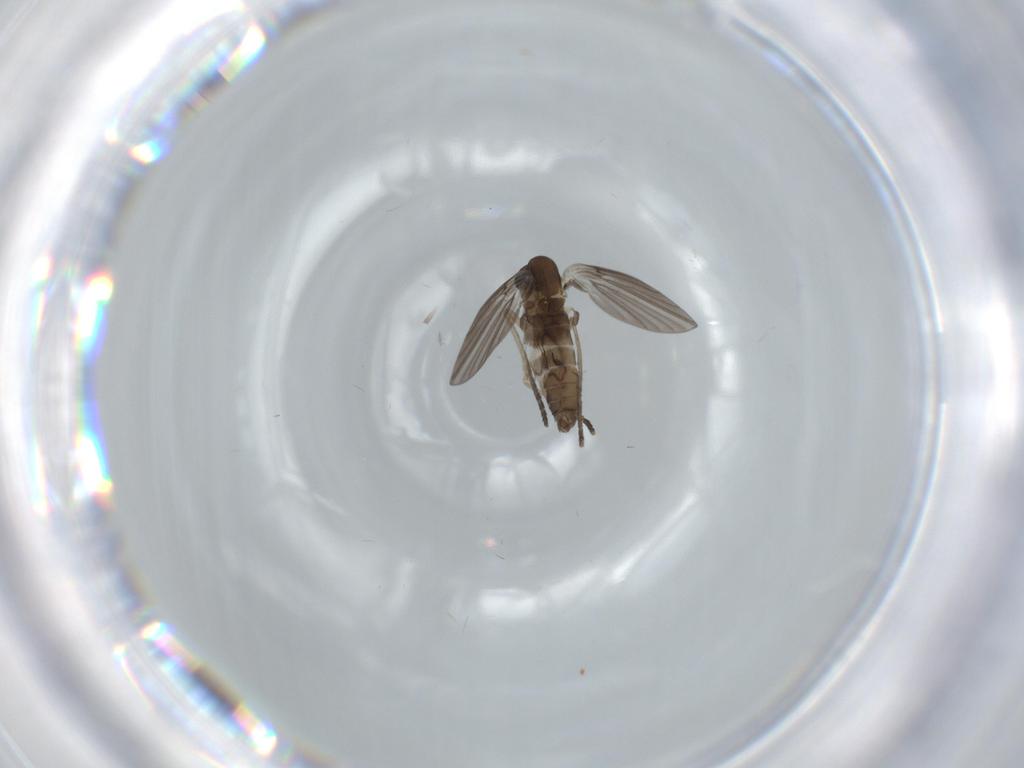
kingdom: Animalia
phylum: Arthropoda
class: Insecta
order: Diptera
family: Psychodidae
